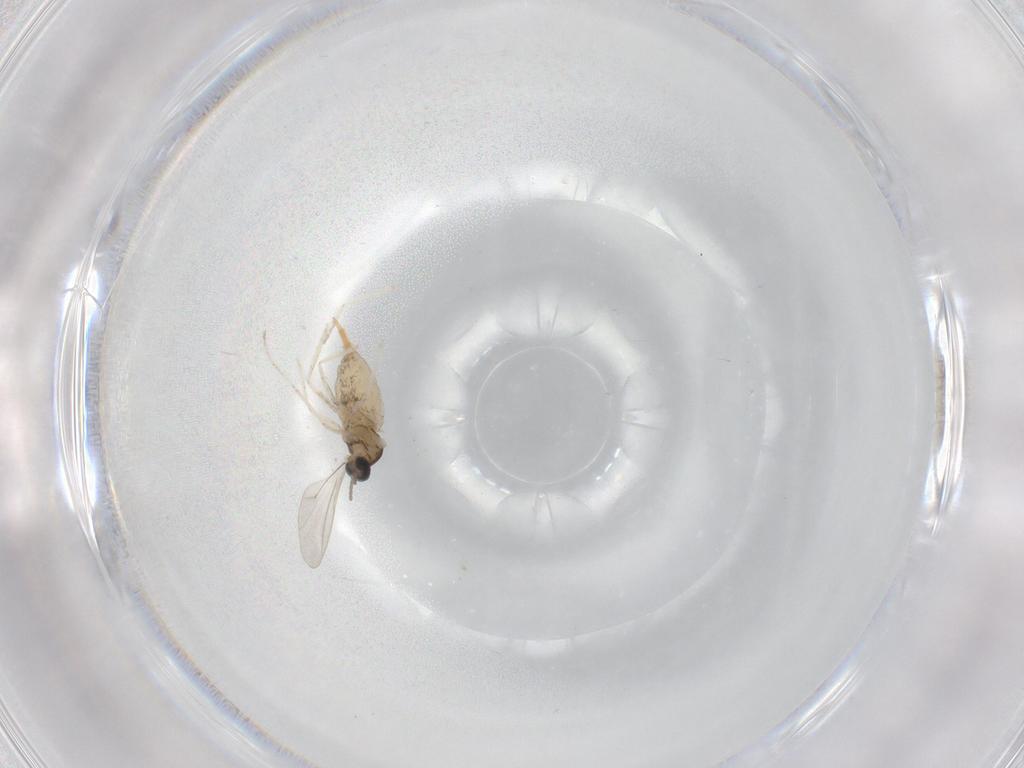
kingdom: Animalia
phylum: Arthropoda
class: Insecta
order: Diptera
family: Cecidomyiidae
